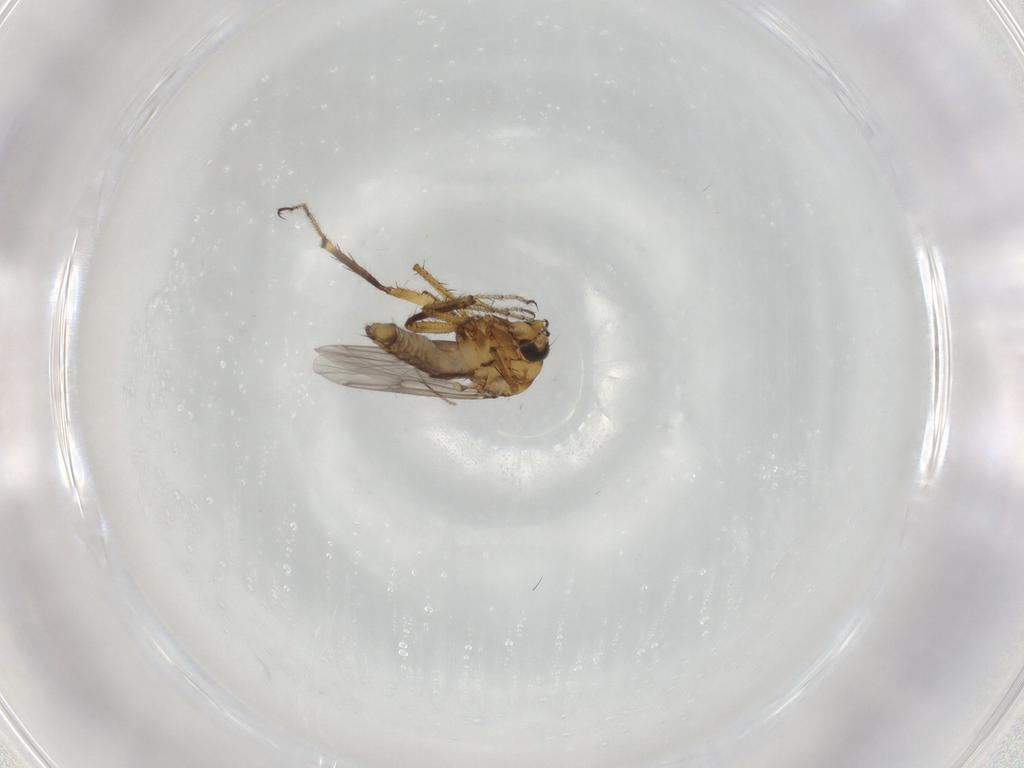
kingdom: Animalia
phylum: Arthropoda
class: Insecta
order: Diptera
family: Ceratopogonidae
